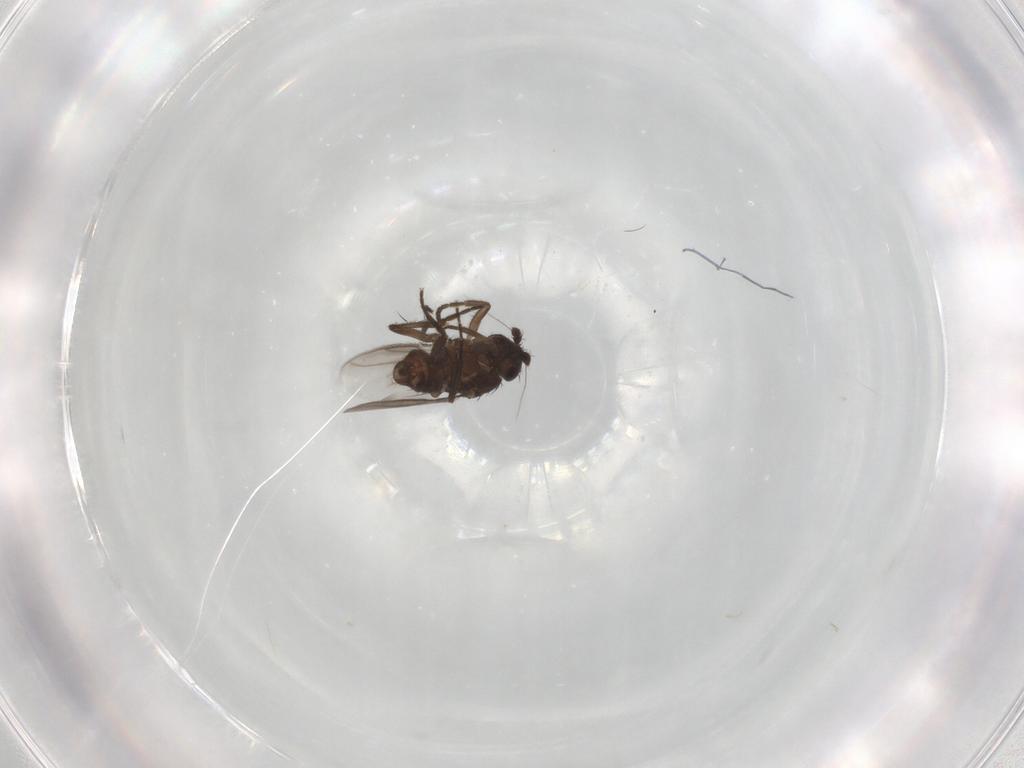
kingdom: Animalia
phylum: Arthropoda
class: Insecta
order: Diptera
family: Sphaeroceridae
